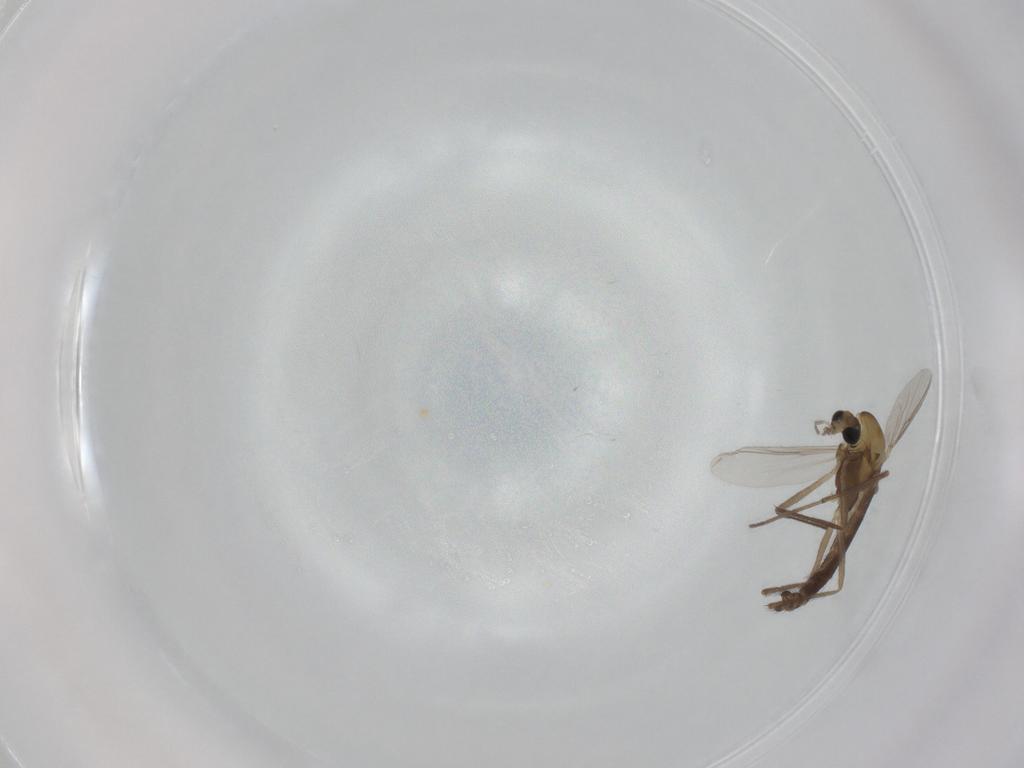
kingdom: Animalia
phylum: Arthropoda
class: Insecta
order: Diptera
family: Chironomidae
